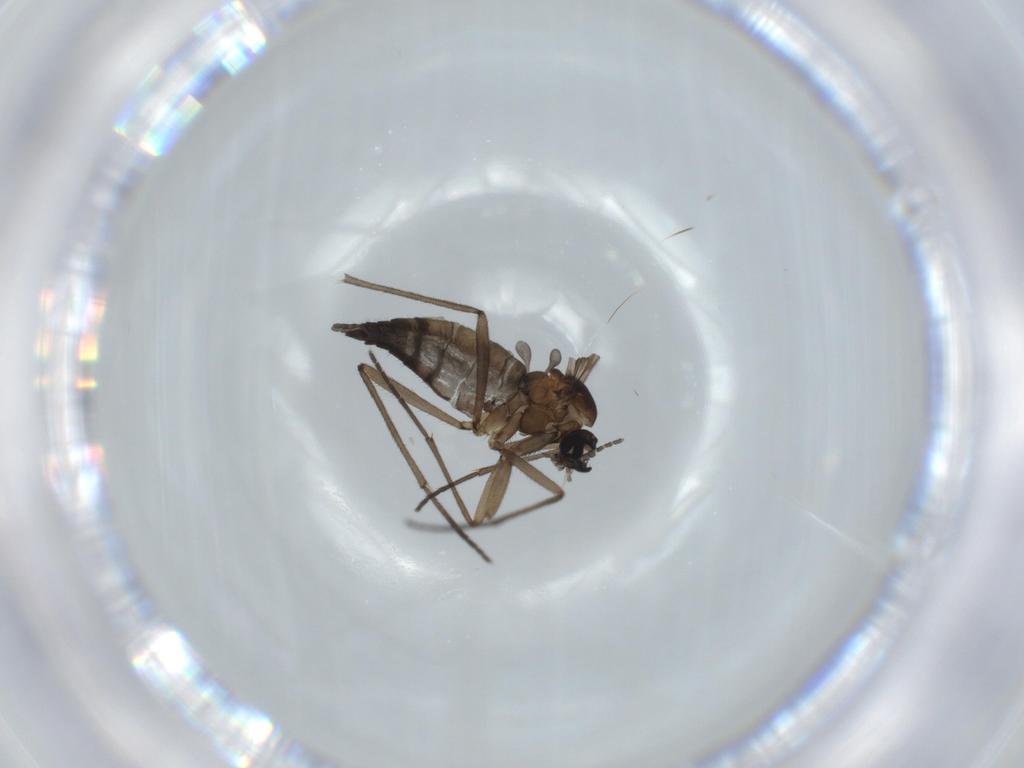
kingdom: Animalia
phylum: Arthropoda
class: Insecta
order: Diptera
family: Sciaridae
